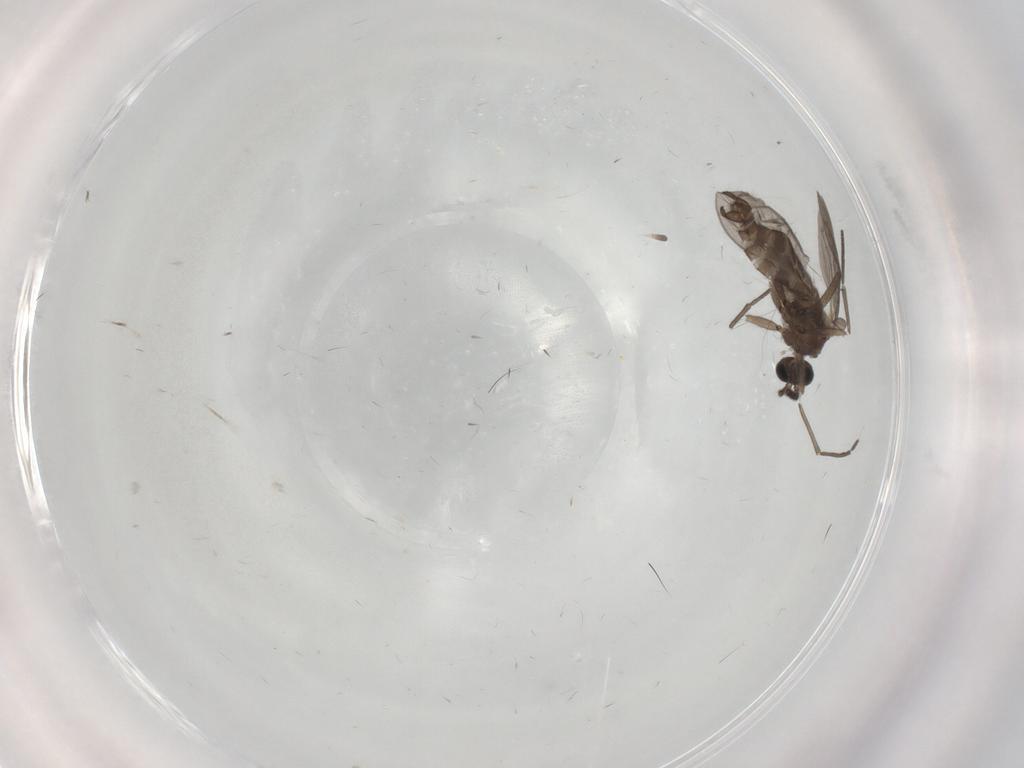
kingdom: Animalia
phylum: Arthropoda
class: Insecta
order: Diptera
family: Sciaridae
